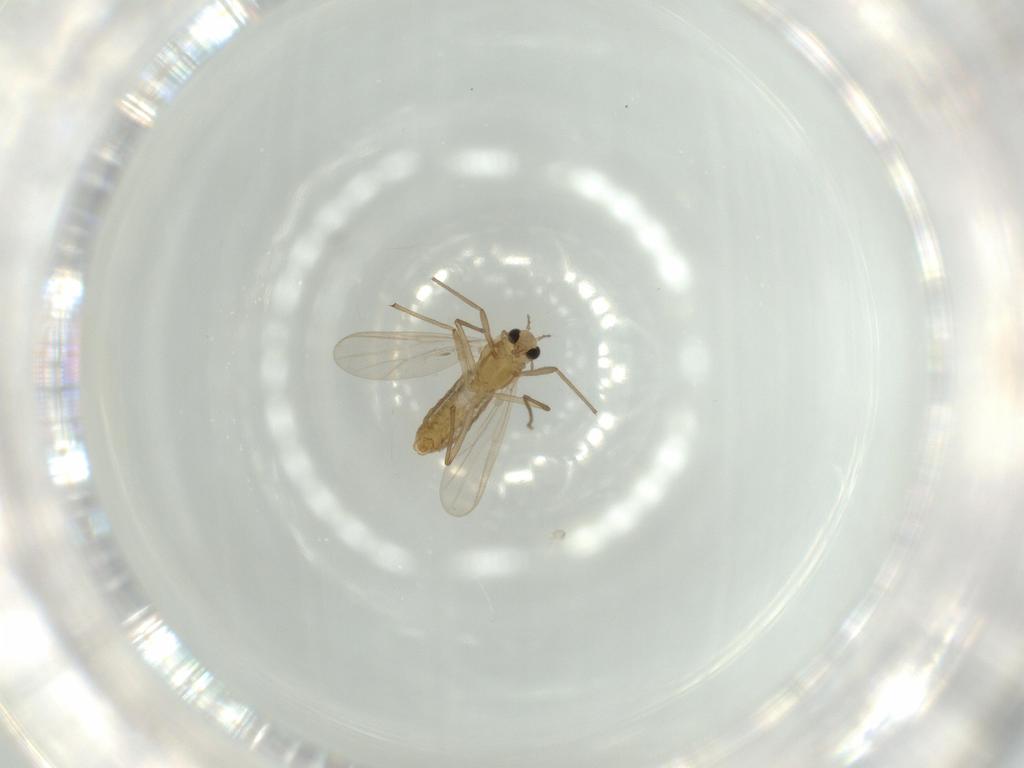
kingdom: Animalia
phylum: Arthropoda
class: Insecta
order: Diptera
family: Chironomidae
